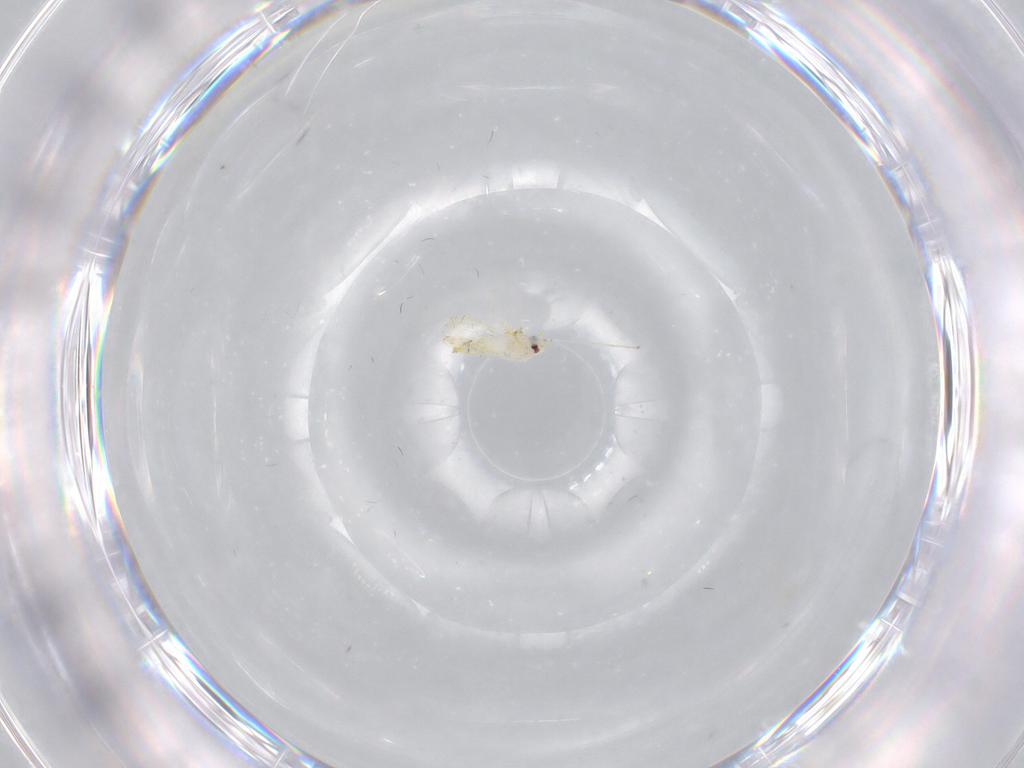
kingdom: Animalia
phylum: Arthropoda
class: Insecta
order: Hemiptera
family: Aleyrodidae
